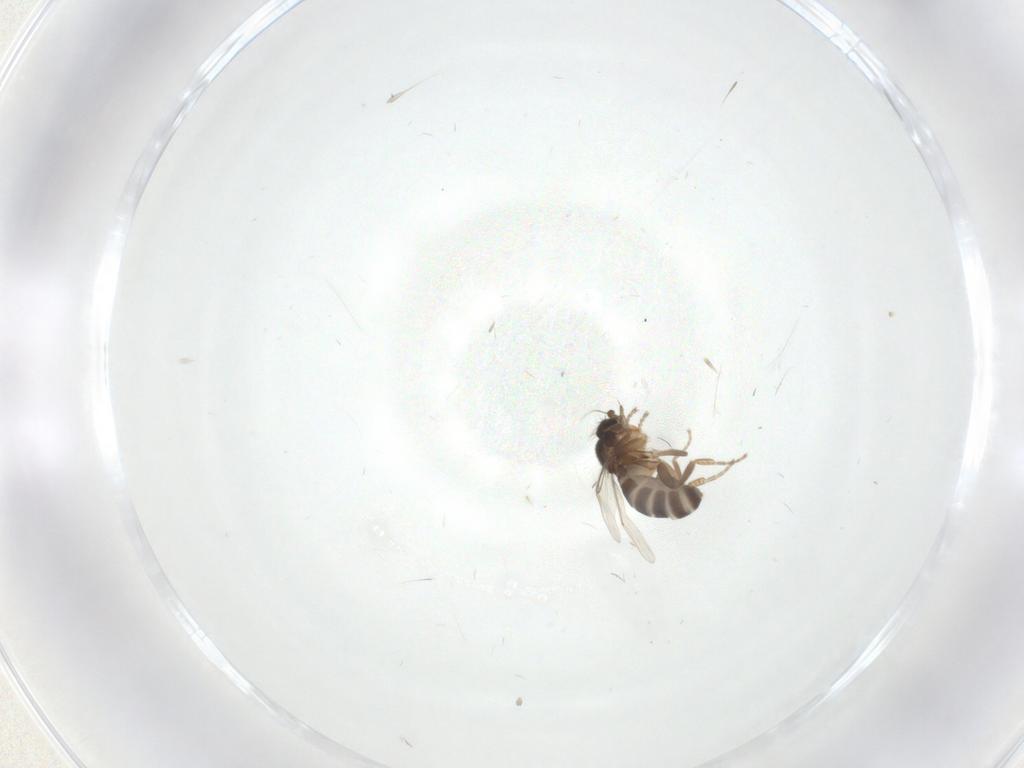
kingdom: Animalia
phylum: Arthropoda
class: Insecta
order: Diptera
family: Phoridae
